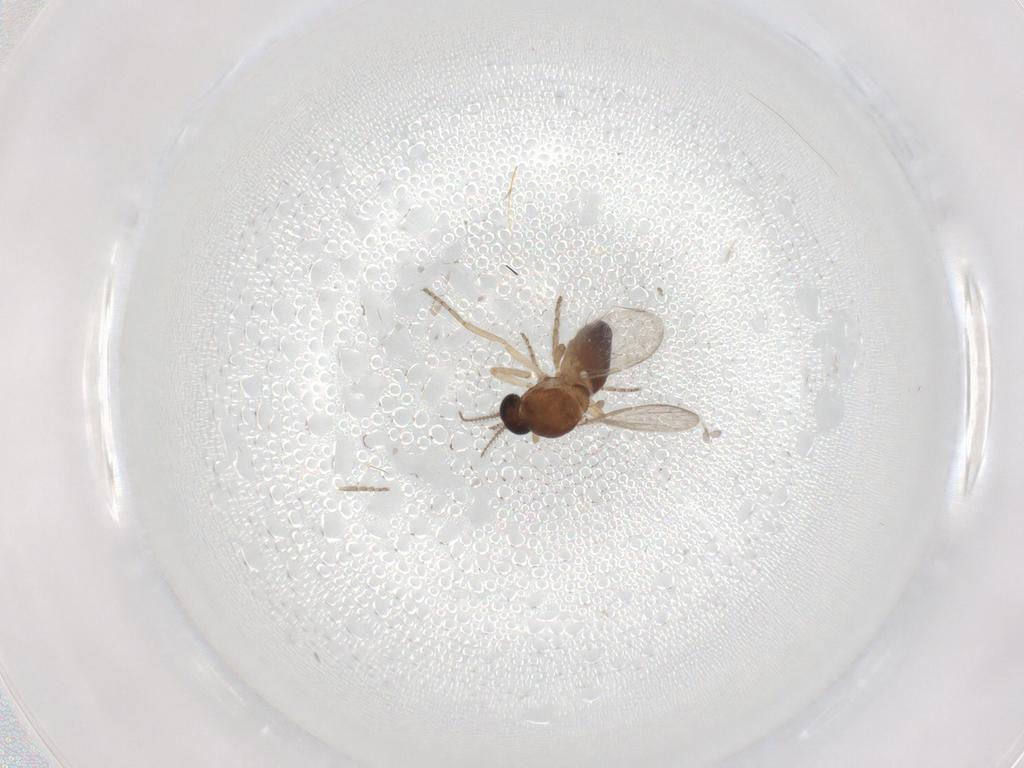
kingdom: Animalia
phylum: Arthropoda
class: Insecta
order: Diptera
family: Ceratopogonidae
